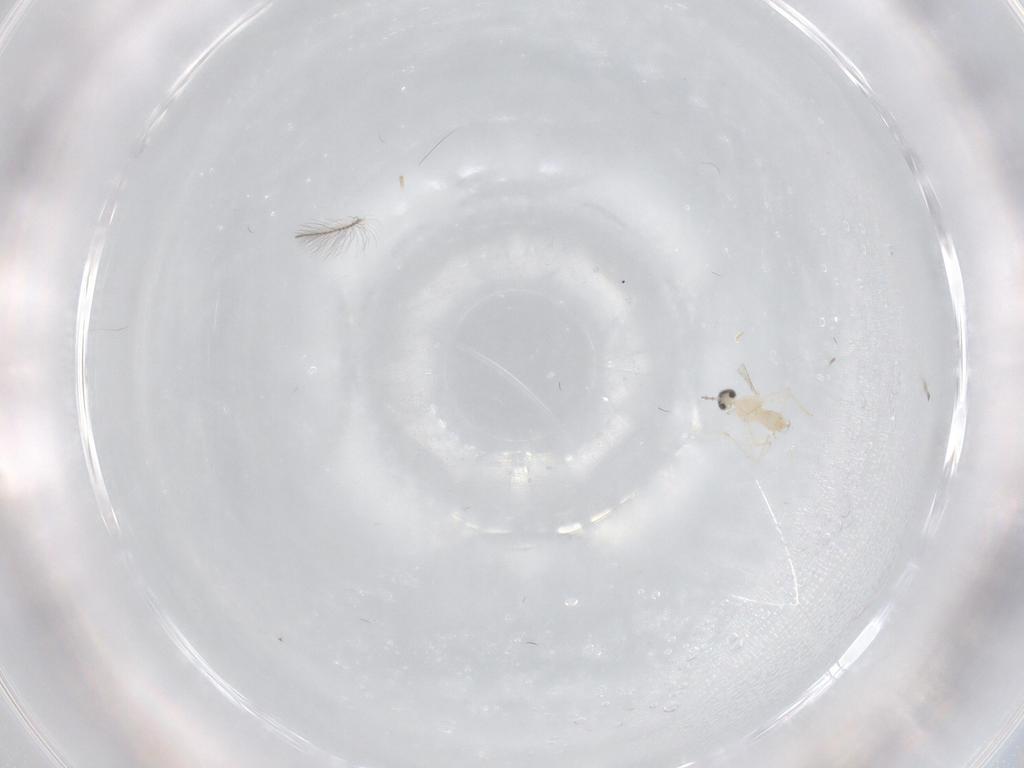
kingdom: Animalia
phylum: Arthropoda
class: Insecta
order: Diptera
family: Cecidomyiidae
